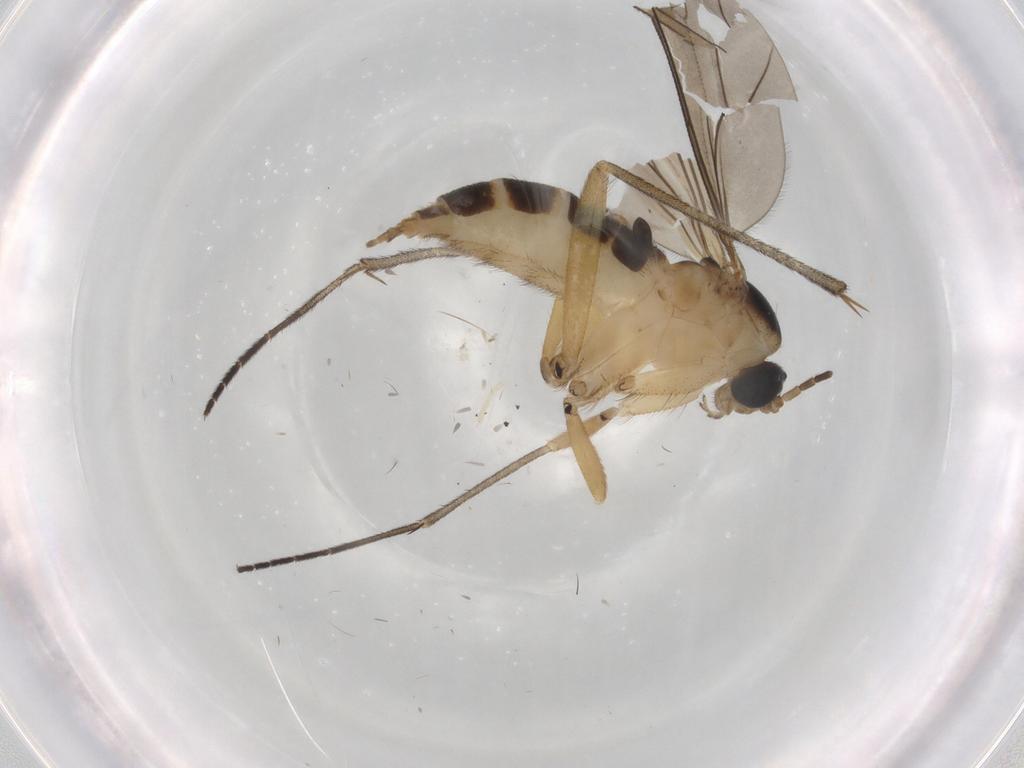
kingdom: Animalia
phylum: Arthropoda
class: Insecta
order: Diptera
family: Sciaridae
